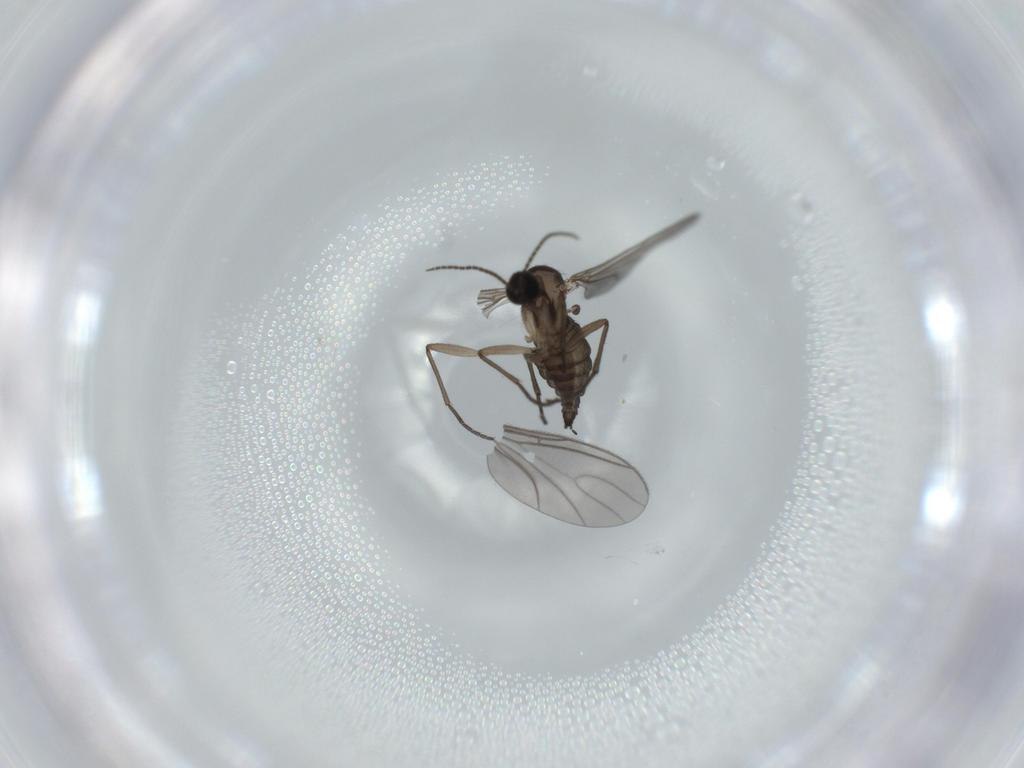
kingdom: Animalia
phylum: Arthropoda
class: Insecta
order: Diptera
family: Sciaridae
